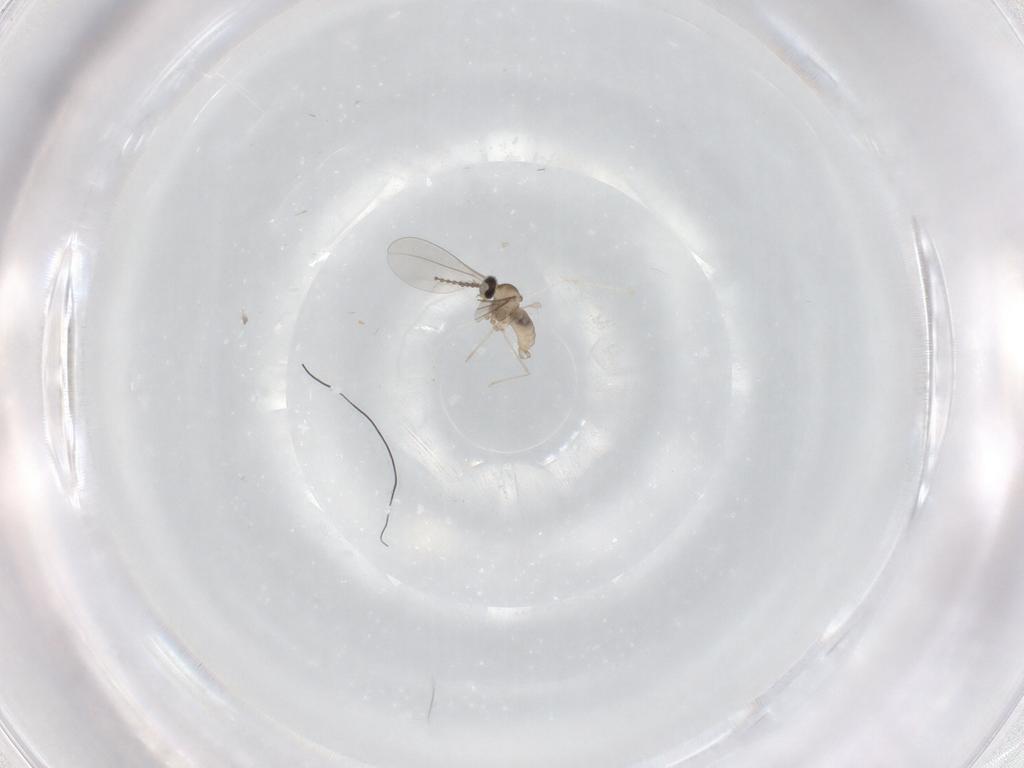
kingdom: Animalia
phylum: Arthropoda
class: Insecta
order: Diptera
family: Cecidomyiidae
